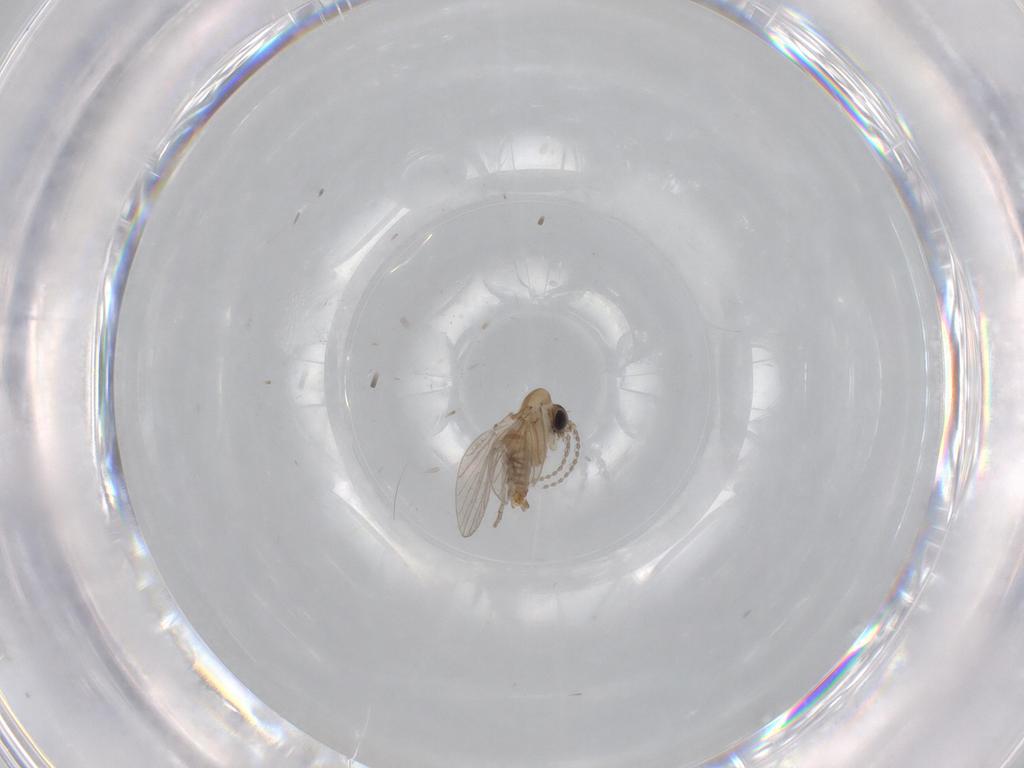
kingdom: Animalia
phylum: Arthropoda
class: Insecta
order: Diptera
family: Psychodidae
